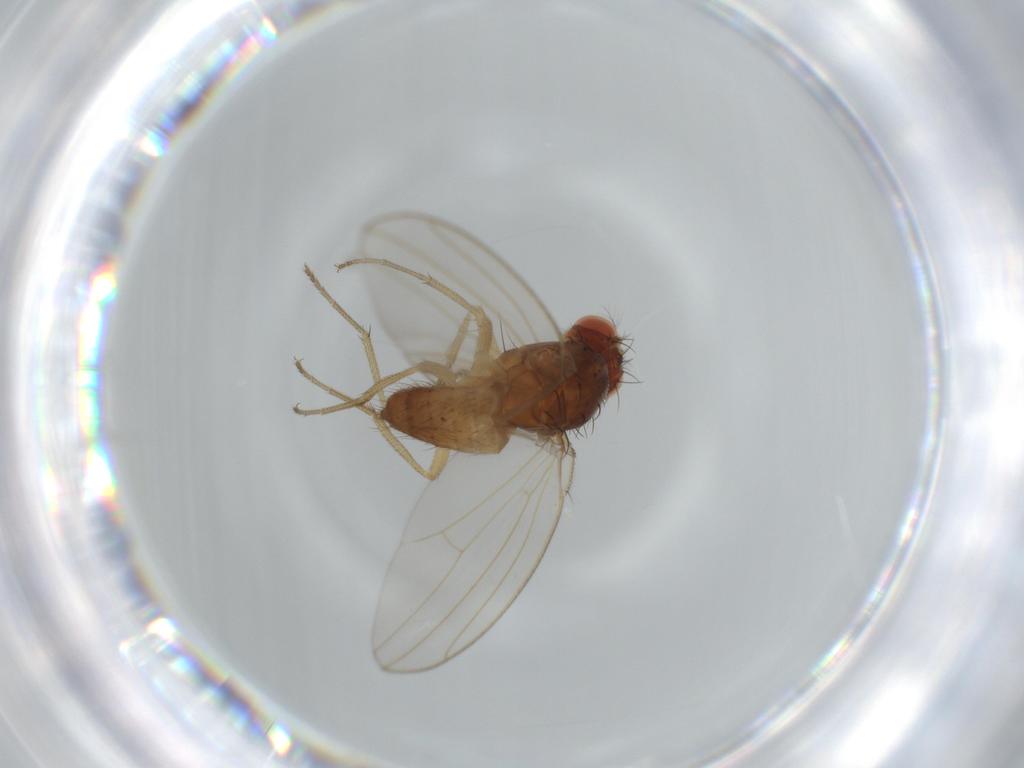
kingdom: Animalia
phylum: Arthropoda
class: Insecta
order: Diptera
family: Drosophilidae
